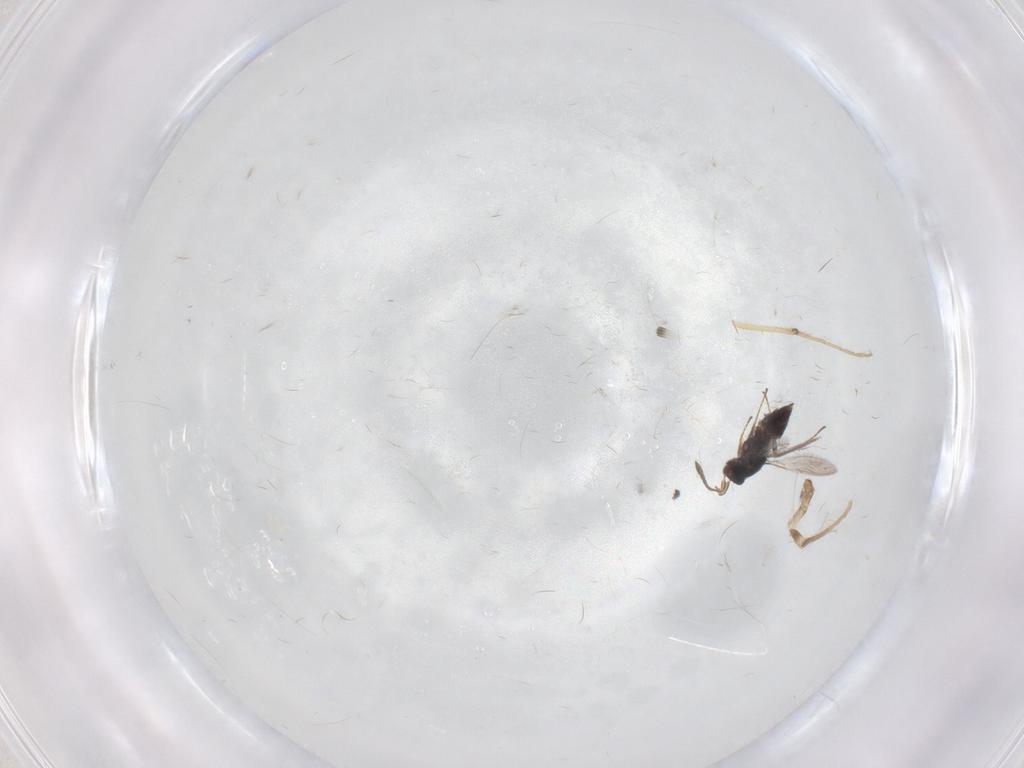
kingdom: Animalia
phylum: Arthropoda
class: Insecta
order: Hymenoptera
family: Mymaridae
